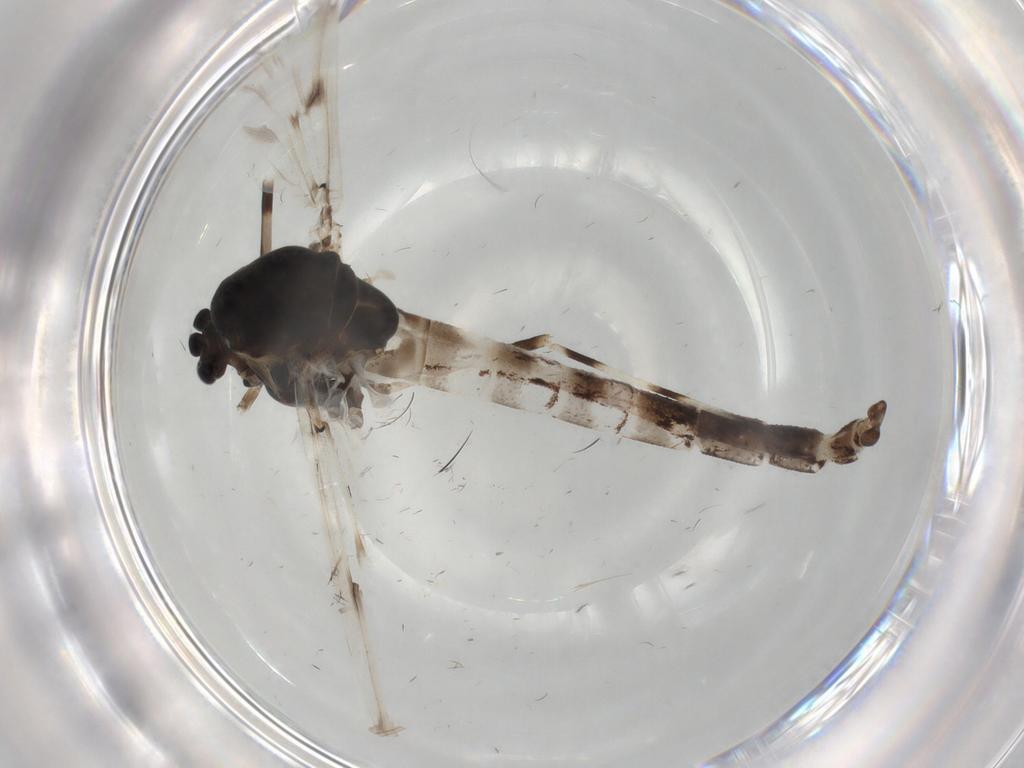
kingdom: Animalia
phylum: Arthropoda
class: Insecta
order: Diptera
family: Chironomidae
